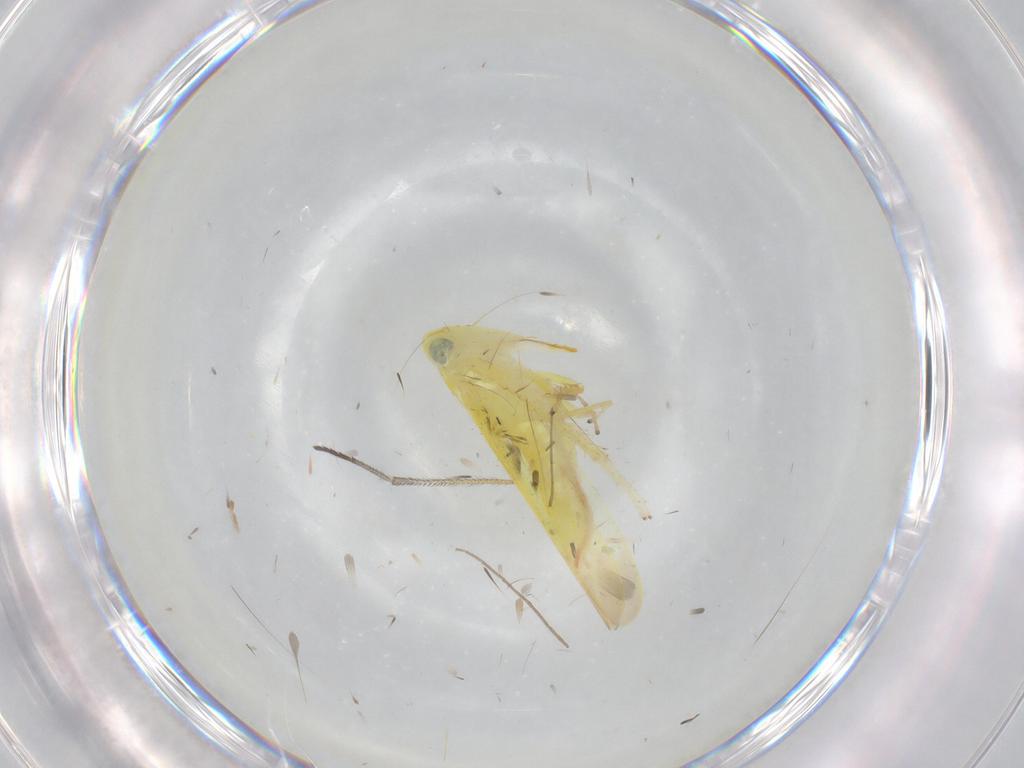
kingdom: Animalia
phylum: Arthropoda
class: Insecta
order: Hemiptera
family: Cicadellidae
